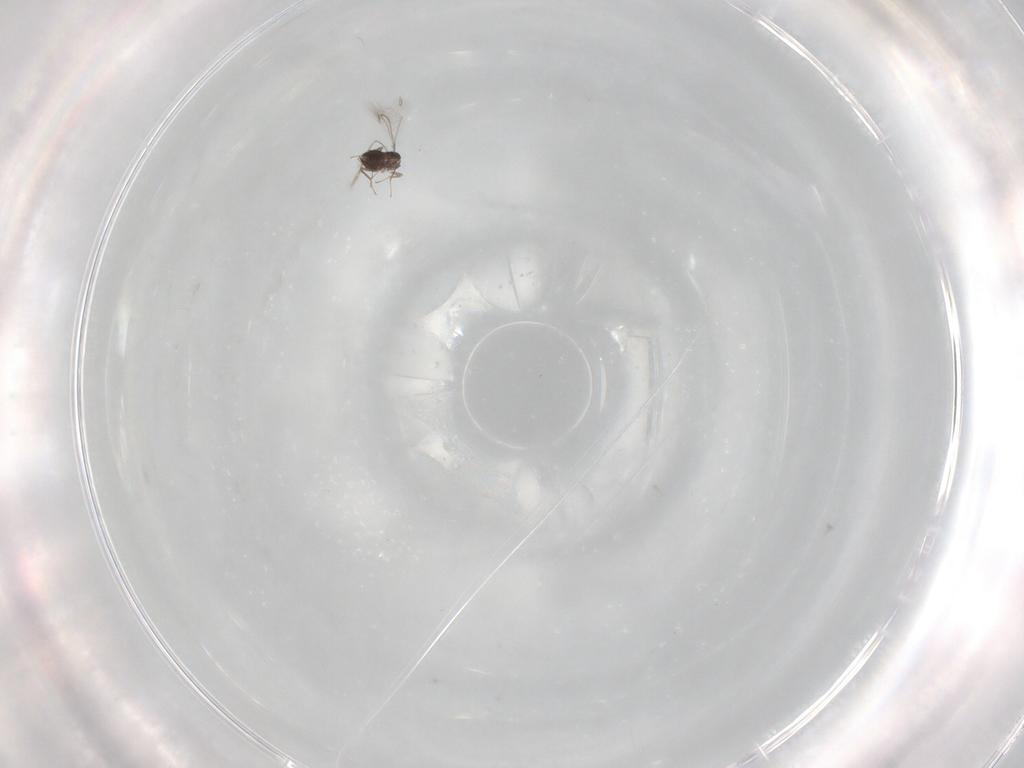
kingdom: Animalia
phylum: Arthropoda
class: Insecta
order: Hymenoptera
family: Mymaridae
